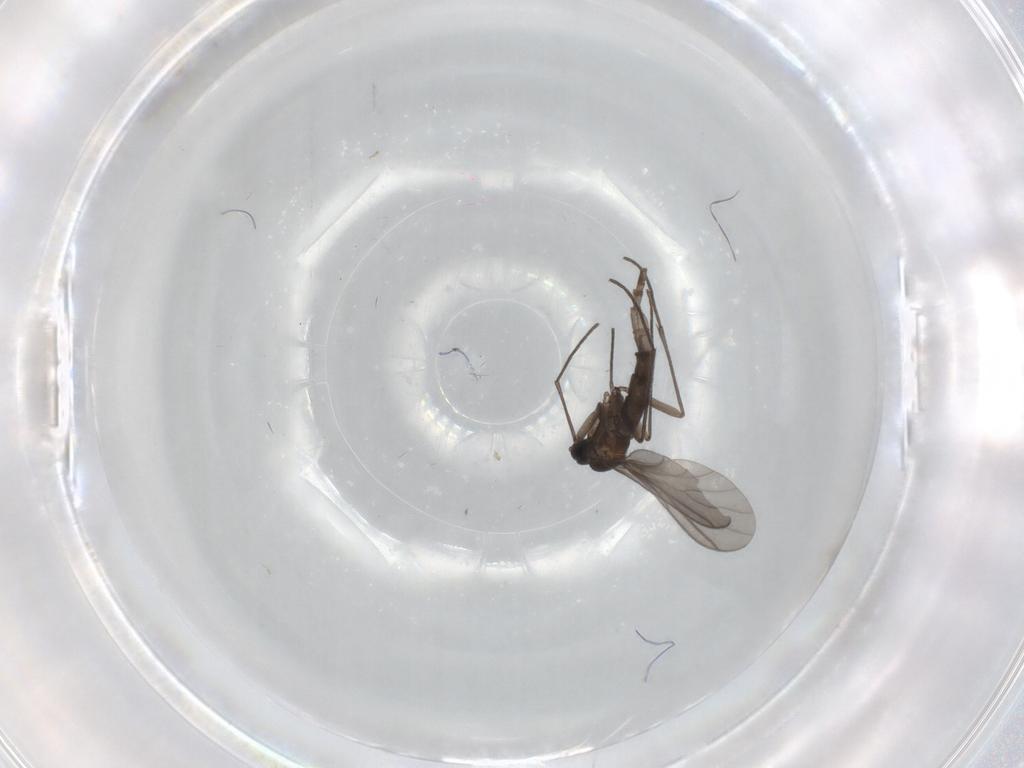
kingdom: Animalia
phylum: Arthropoda
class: Insecta
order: Diptera
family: Sciaridae
